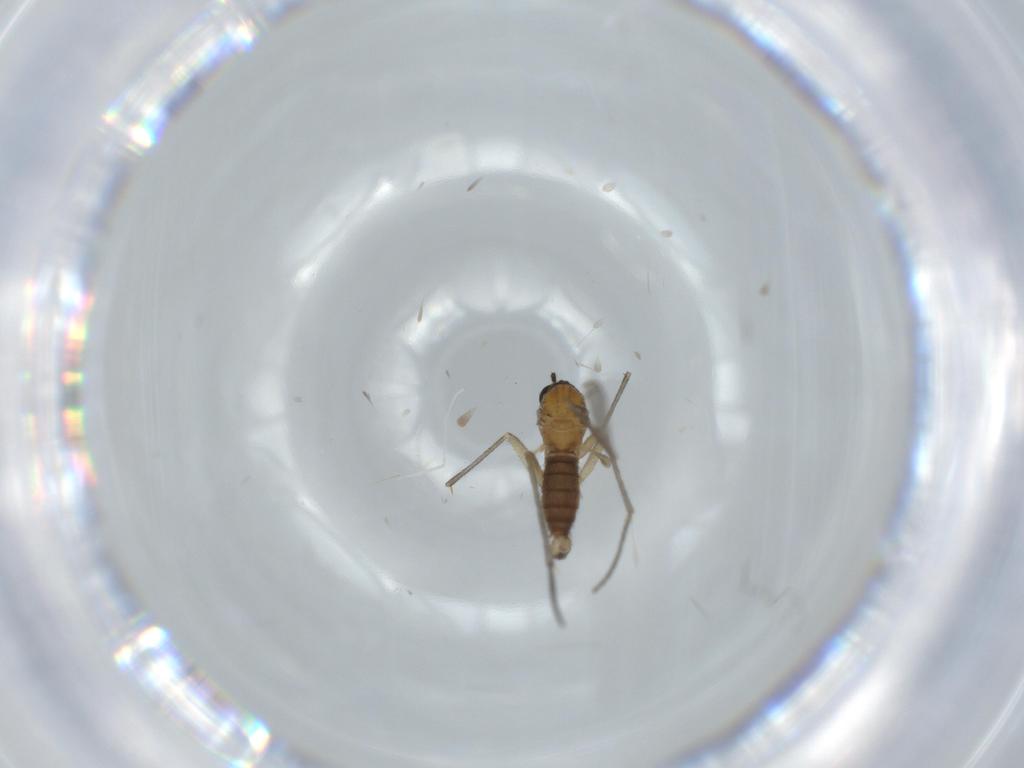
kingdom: Animalia
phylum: Arthropoda
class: Insecta
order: Diptera
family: Sciaridae
